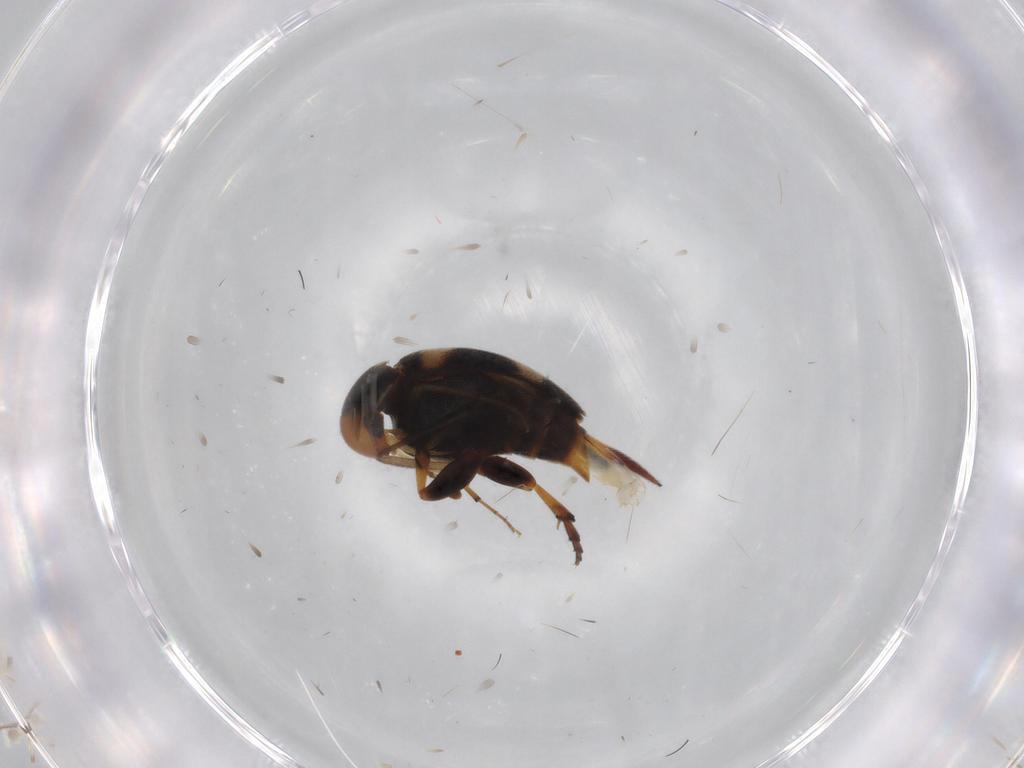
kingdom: Animalia
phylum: Arthropoda
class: Insecta
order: Coleoptera
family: Mordellidae
